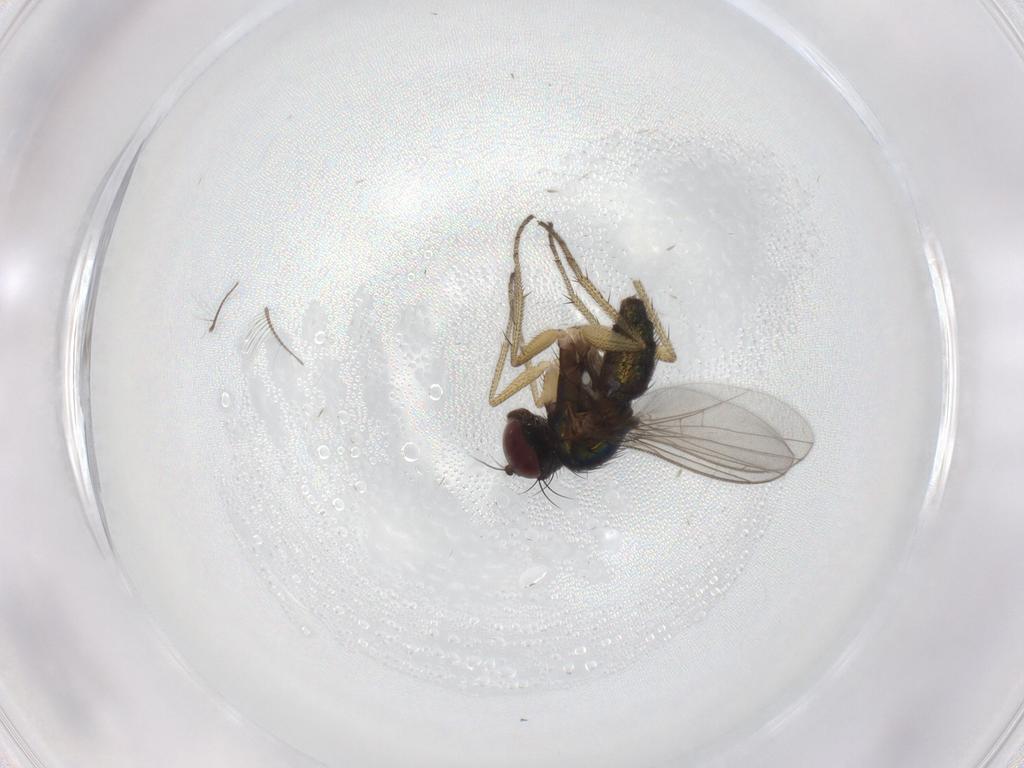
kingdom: Animalia
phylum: Arthropoda
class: Insecta
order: Diptera
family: Chironomidae
